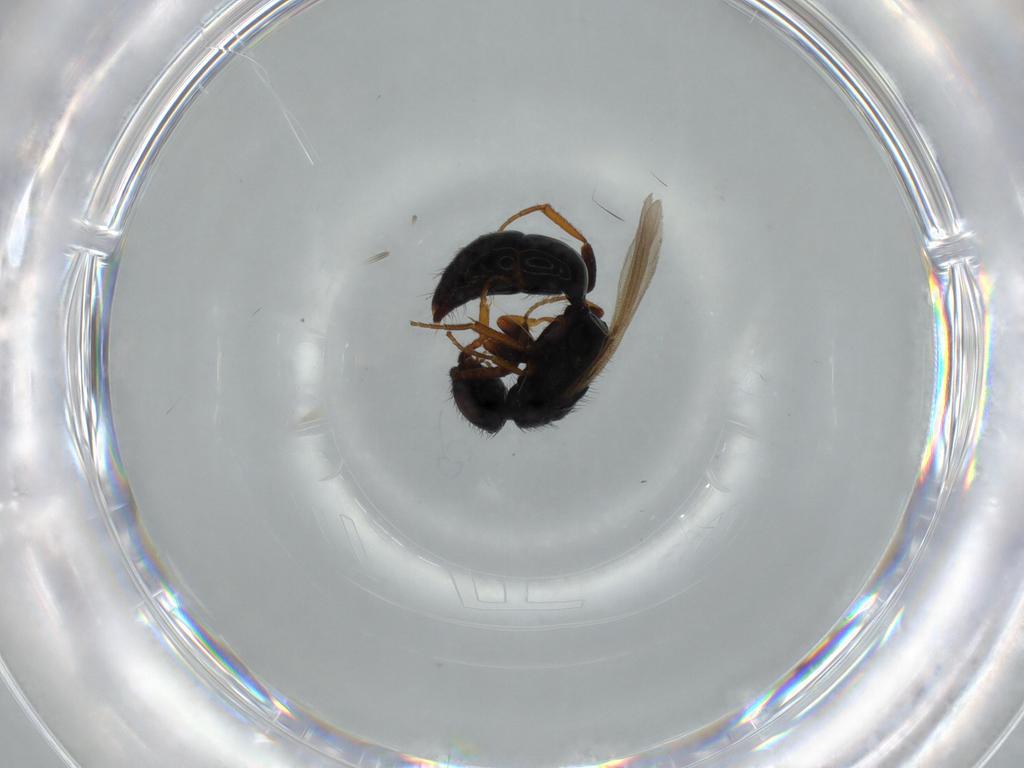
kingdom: Animalia
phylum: Arthropoda
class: Insecta
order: Hymenoptera
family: Bethylidae
